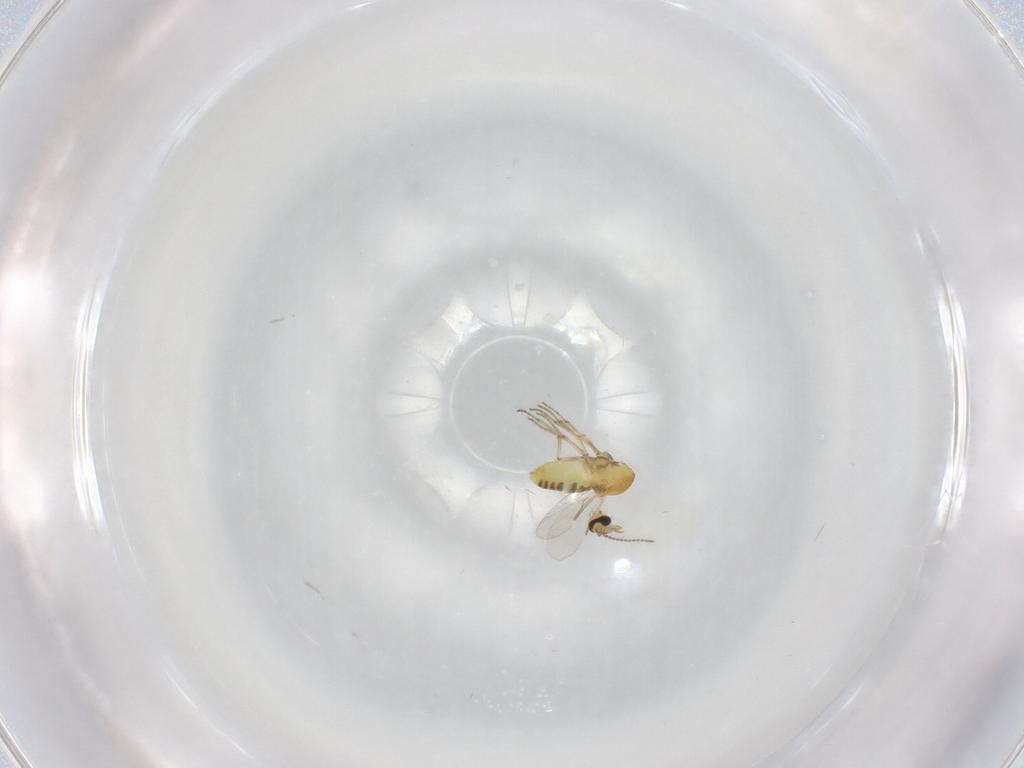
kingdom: Animalia
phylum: Arthropoda
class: Insecta
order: Diptera
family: Ceratopogonidae
